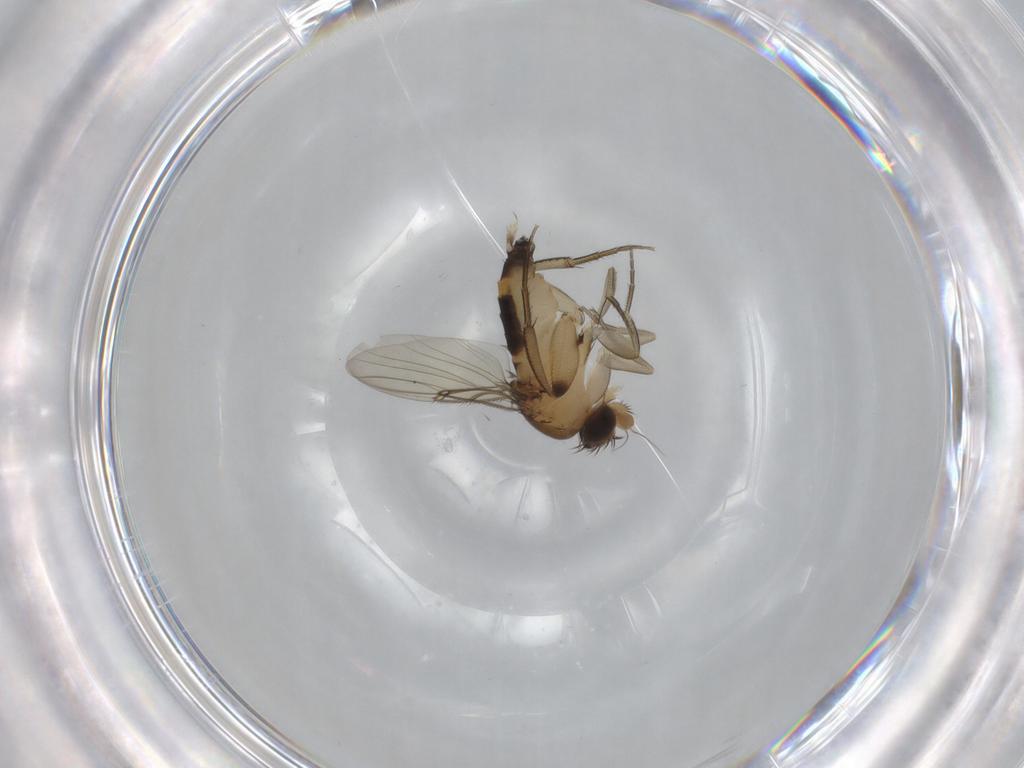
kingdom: Animalia
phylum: Arthropoda
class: Insecta
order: Diptera
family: Phoridae
